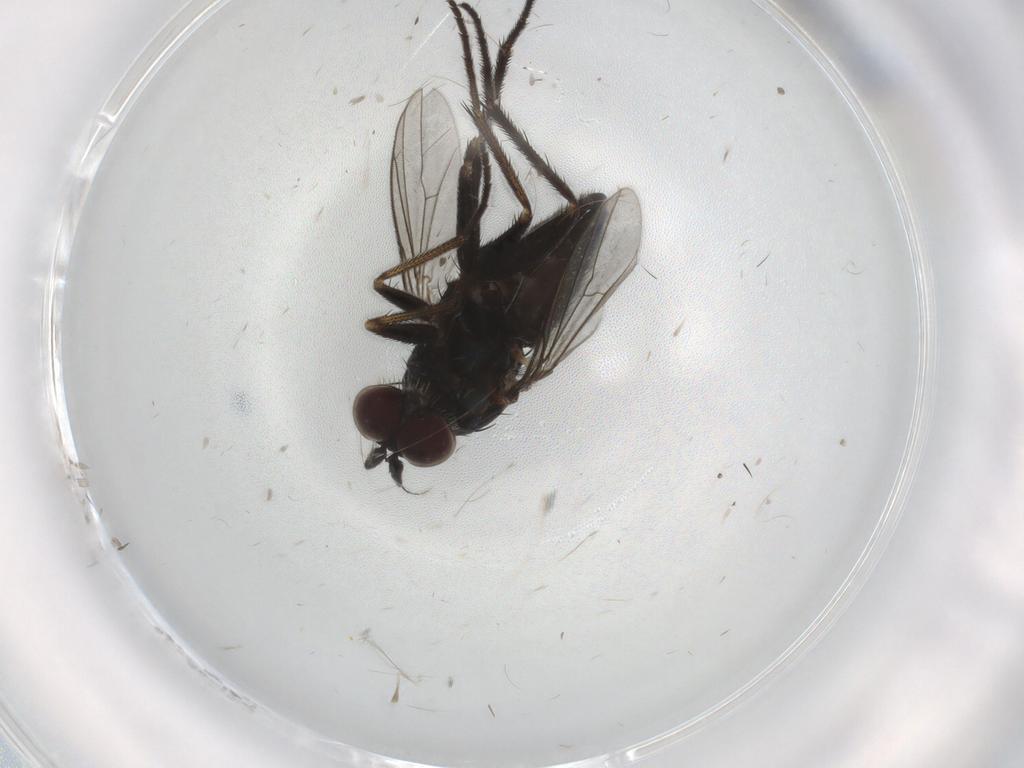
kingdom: Animalia
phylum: Arthropoda
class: Insecta
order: Diptera
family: Dolichopodidae
